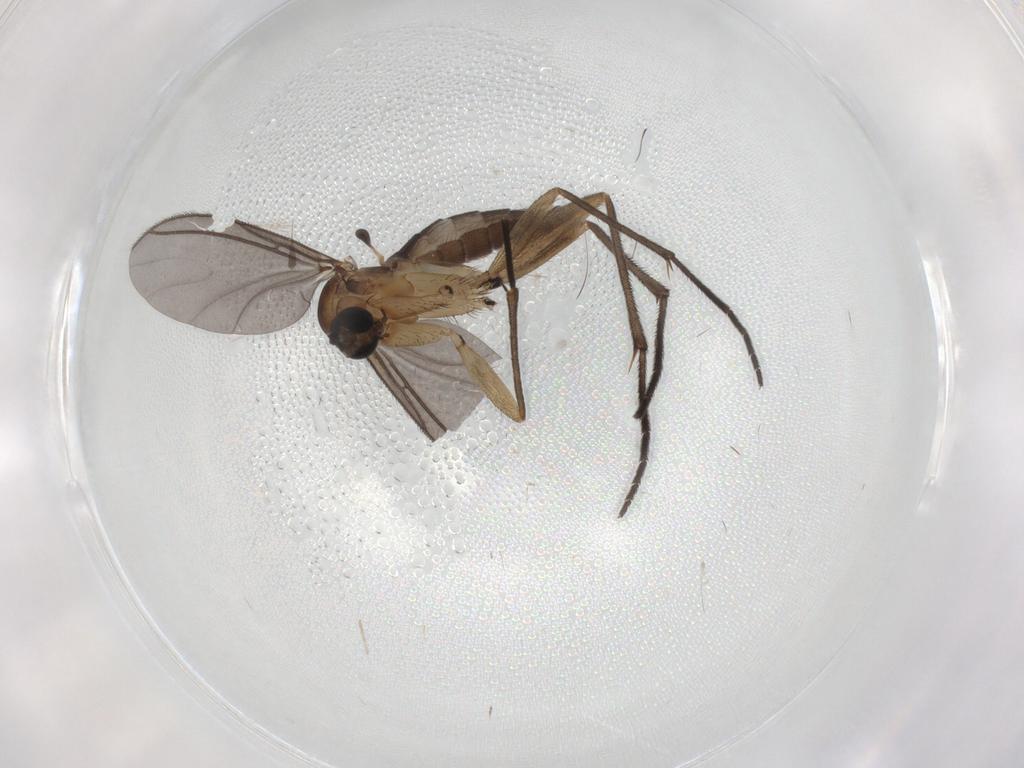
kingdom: Animalia
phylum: Arthropoda
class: Insecta
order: Diptera
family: Sciaridae
